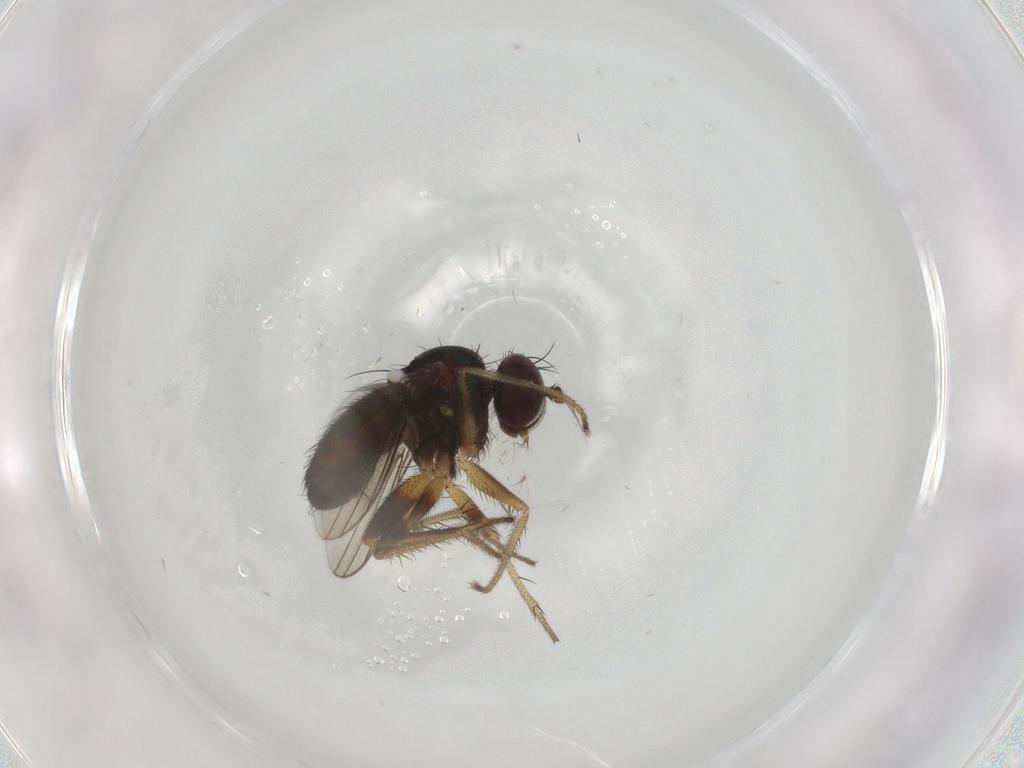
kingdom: Animalia
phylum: Arthropoda
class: Insecta
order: Diptera
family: Dolichopodidae
